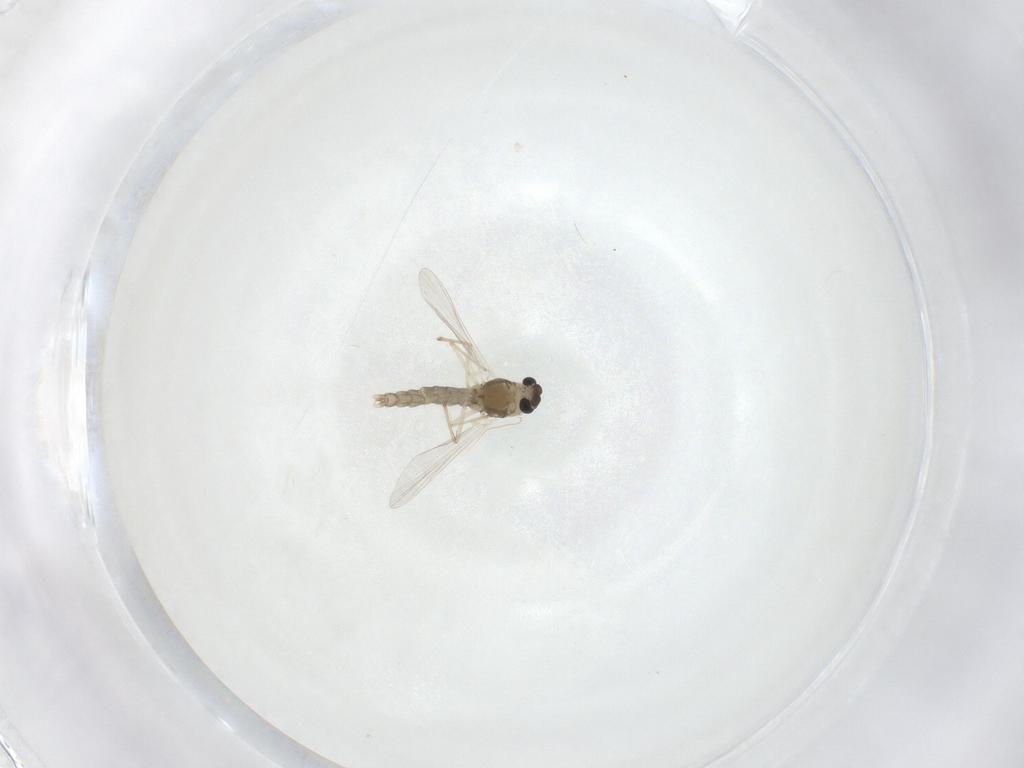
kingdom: Animalia
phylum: Arthropoda
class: Insecta
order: Diptera
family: Chironomidae
